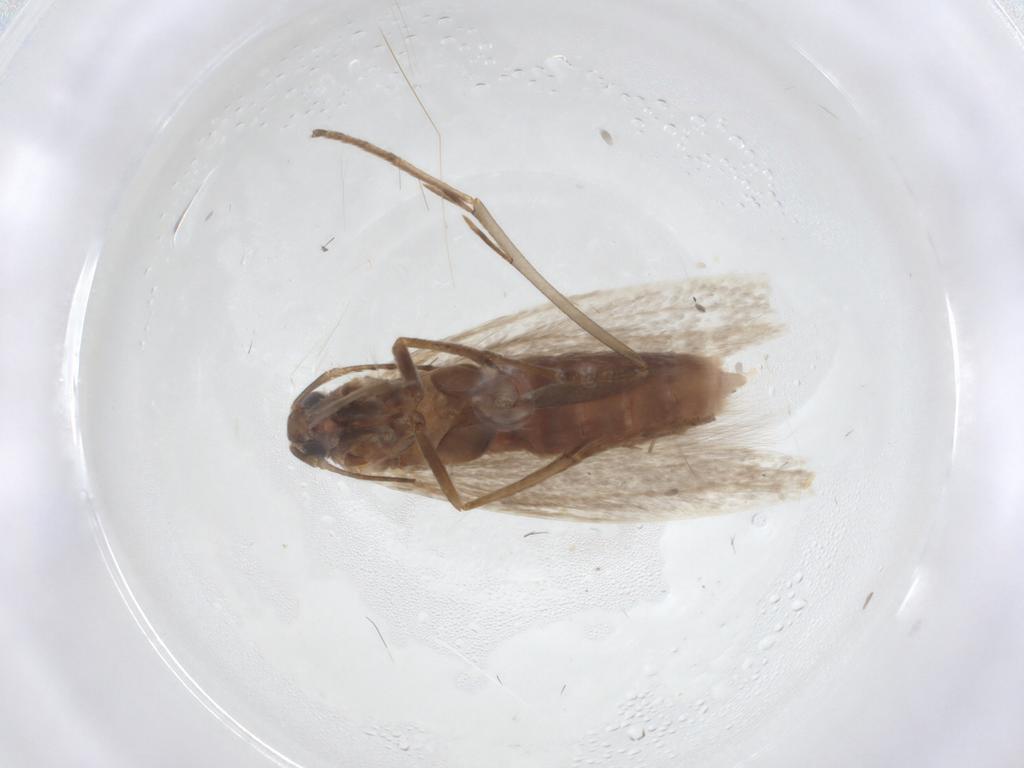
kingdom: Animalia
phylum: Arthropoda
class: Insecta
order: Lepidoptera
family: Coleophoridae
